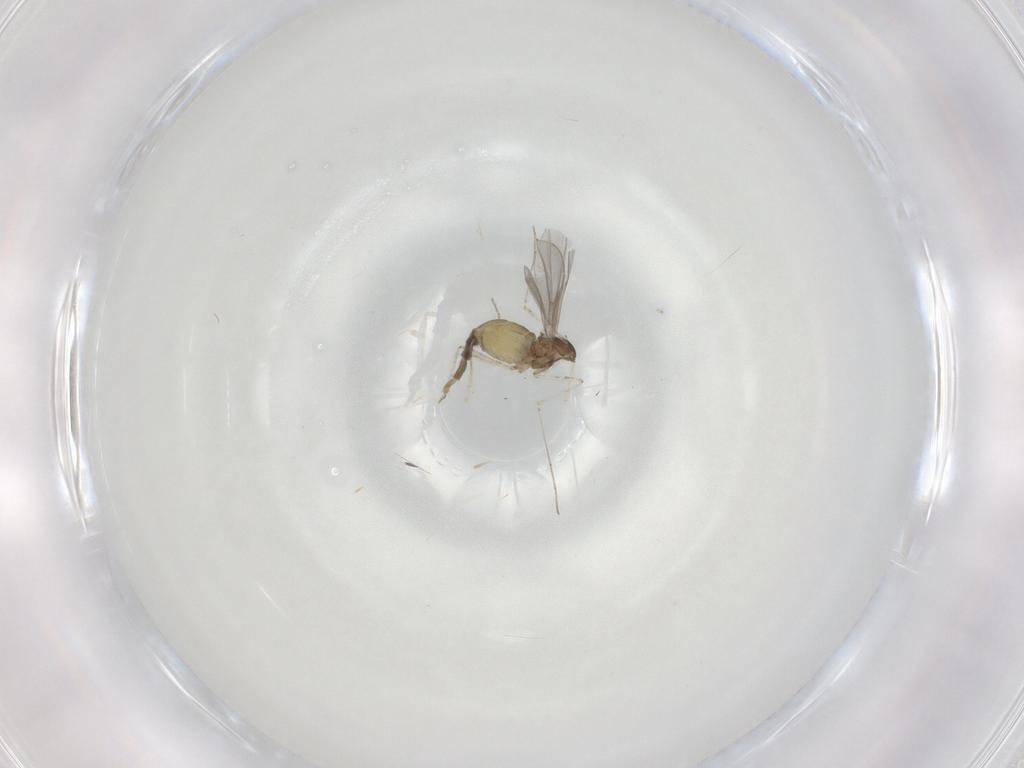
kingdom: Animalia
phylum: Arthropoda
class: Insecta
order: Diptera
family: Cecidomyiidae
